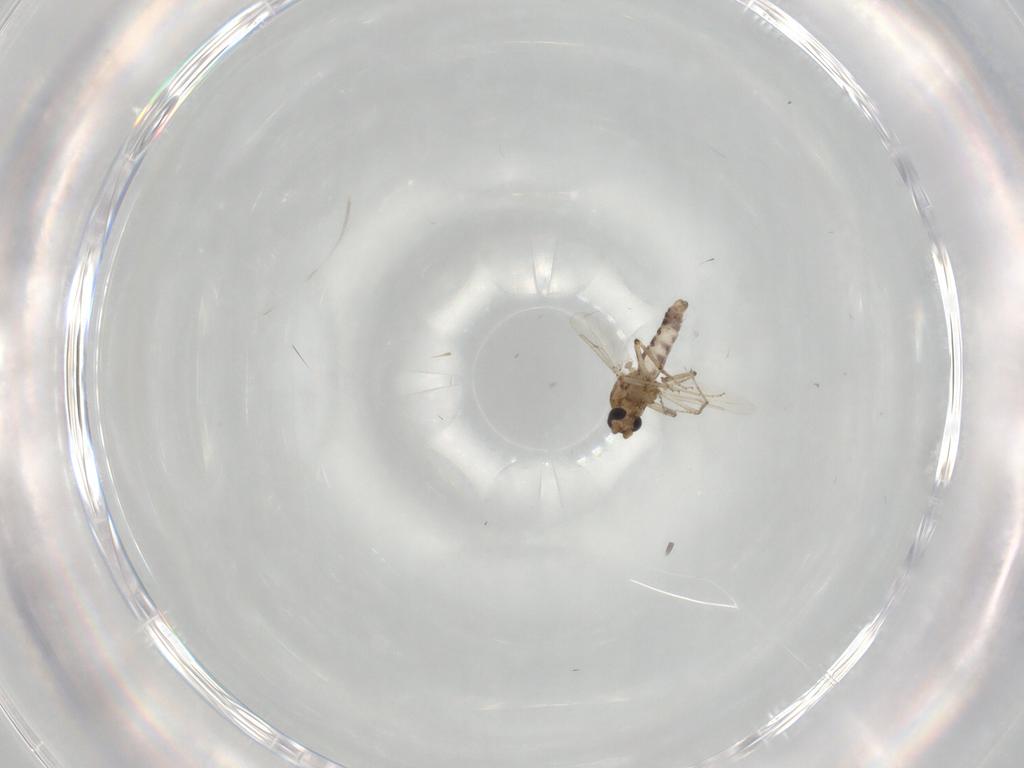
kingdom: Animalia
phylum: Arthropoda
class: Insecta
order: Diptera
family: Ceratopogonidae
